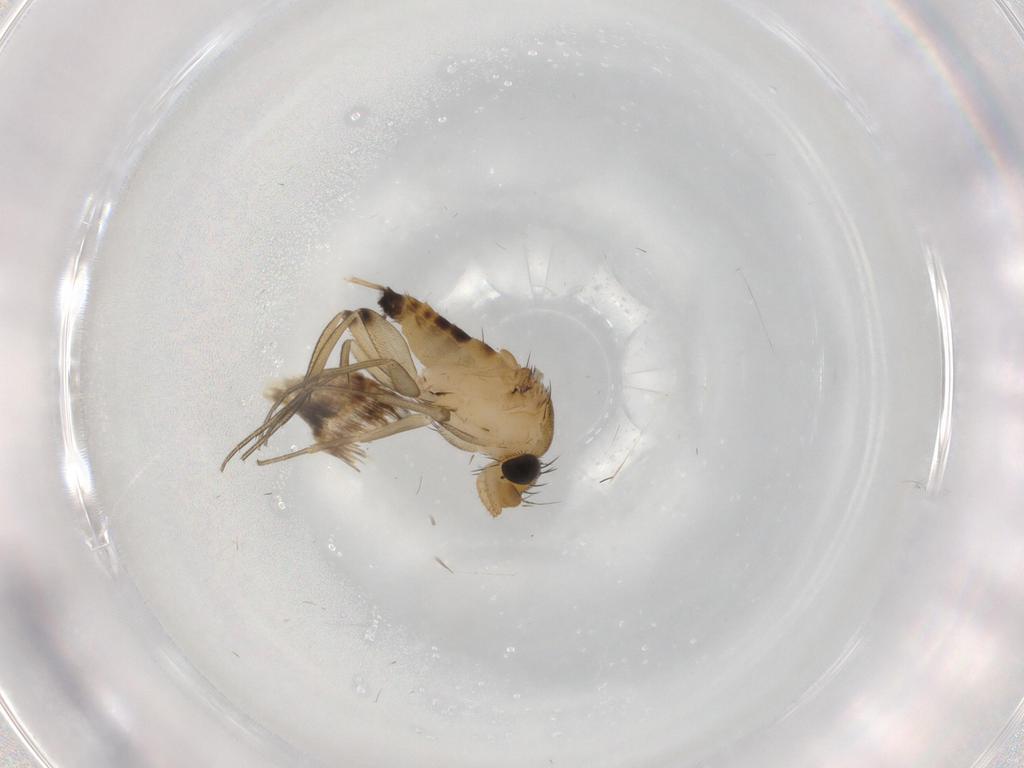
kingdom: Animalia
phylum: Arthropoda
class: Insecta
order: Diptera
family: Phoridae
